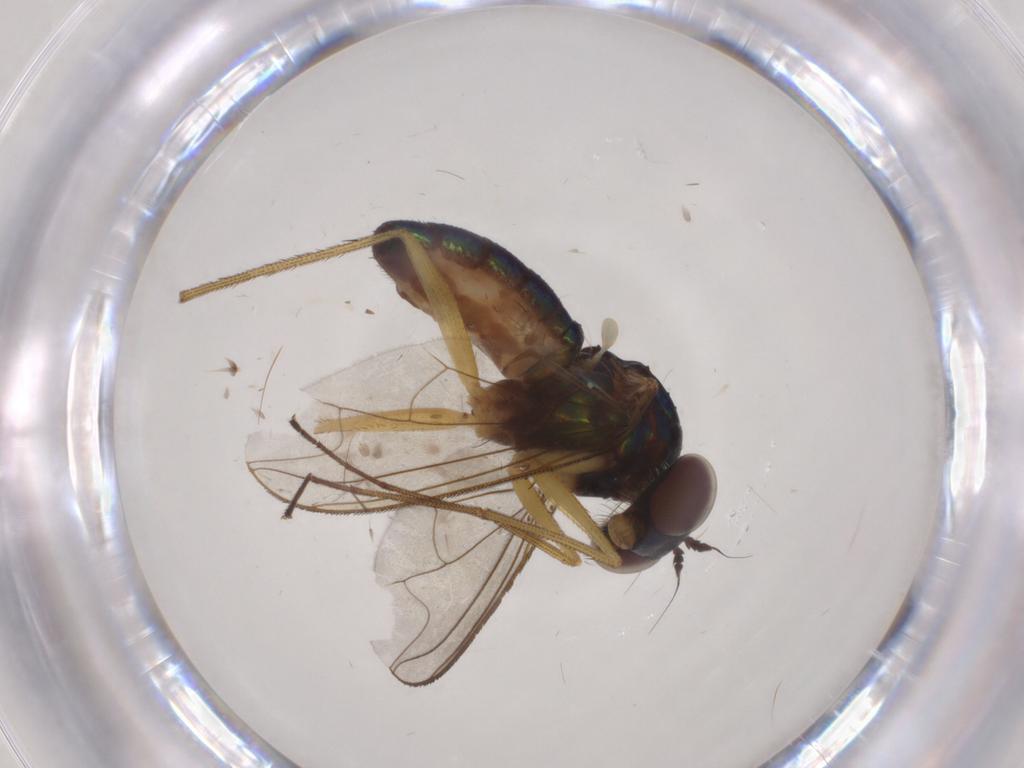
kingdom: Animalia
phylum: Arthropoda
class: Insecta
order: Diptera
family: Dolichopodidae
